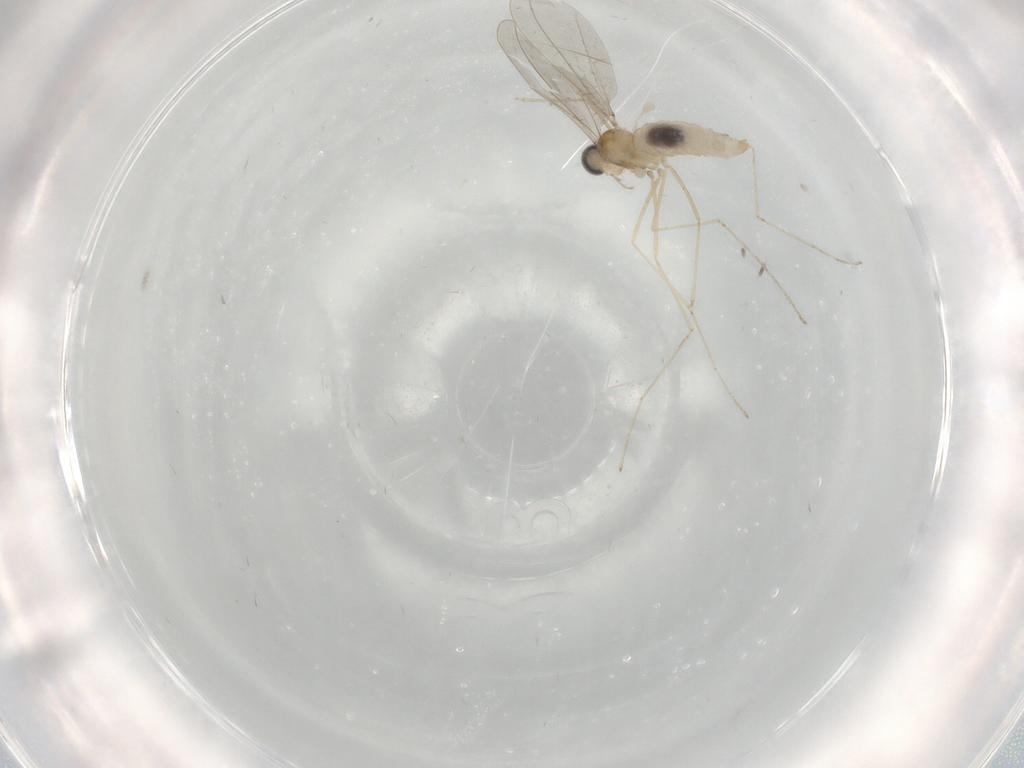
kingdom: Animalia
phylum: Arthropoda
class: Insecta
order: Diptera
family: Cecidomyiidae
